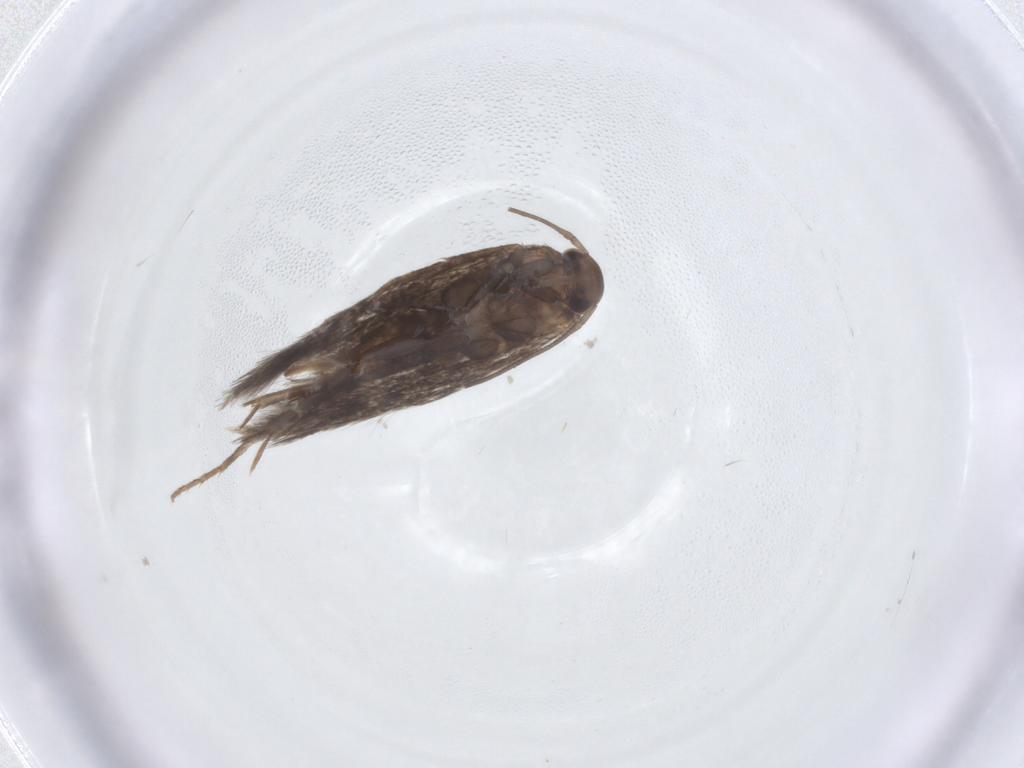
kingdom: Animalia
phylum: Arthropoda
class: Insecta
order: Lepidoptera
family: Elachistidae
